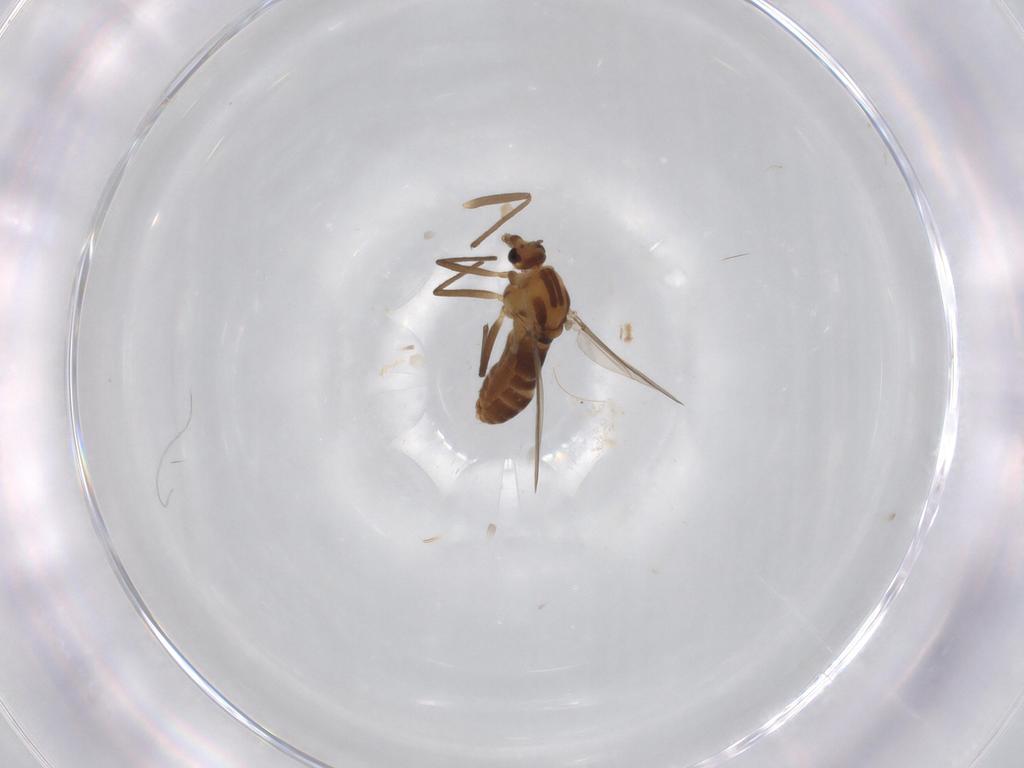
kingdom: Animalia
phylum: Arthropoda
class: Insecta
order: Diptera
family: Chironomidae
